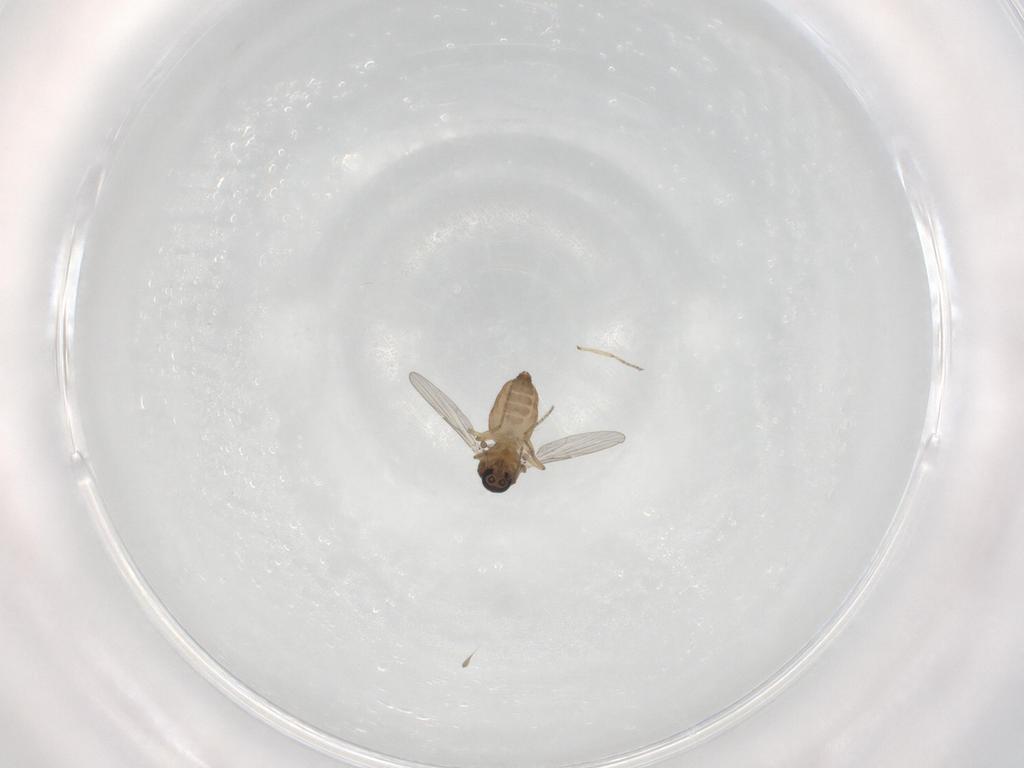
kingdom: Animalia
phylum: Arthropoda
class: Insecta
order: Diptera
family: Ceratopogonidae
